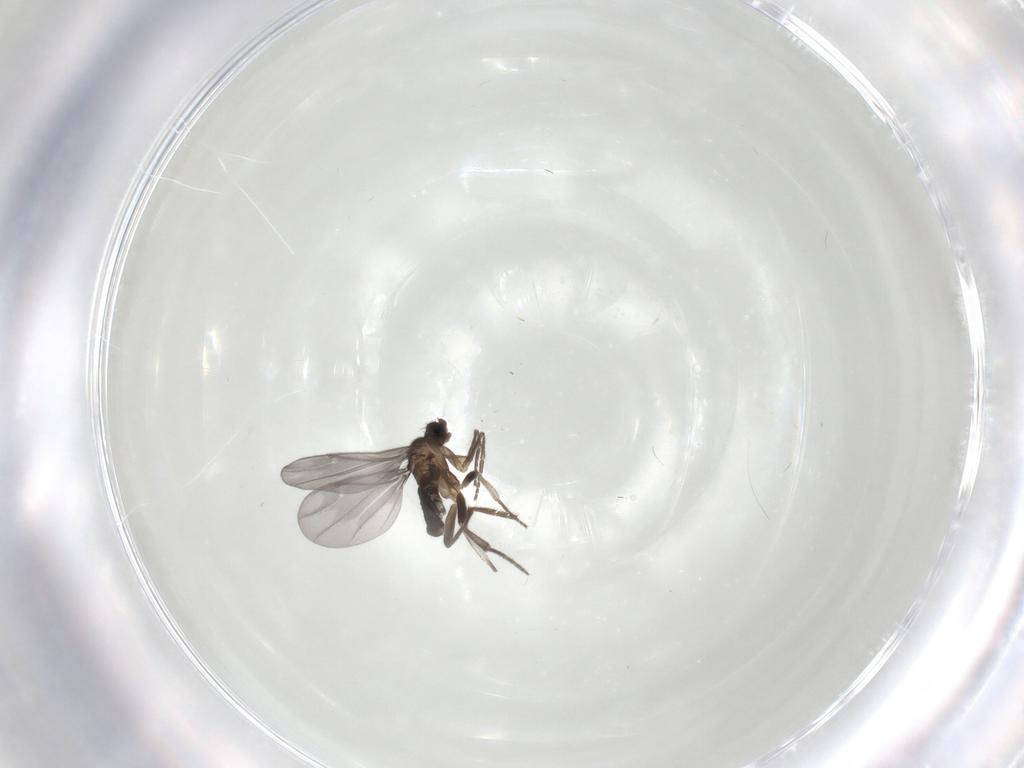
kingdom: Animalia
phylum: Arthropoda
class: Insecta
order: Diptera
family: Phoridae
